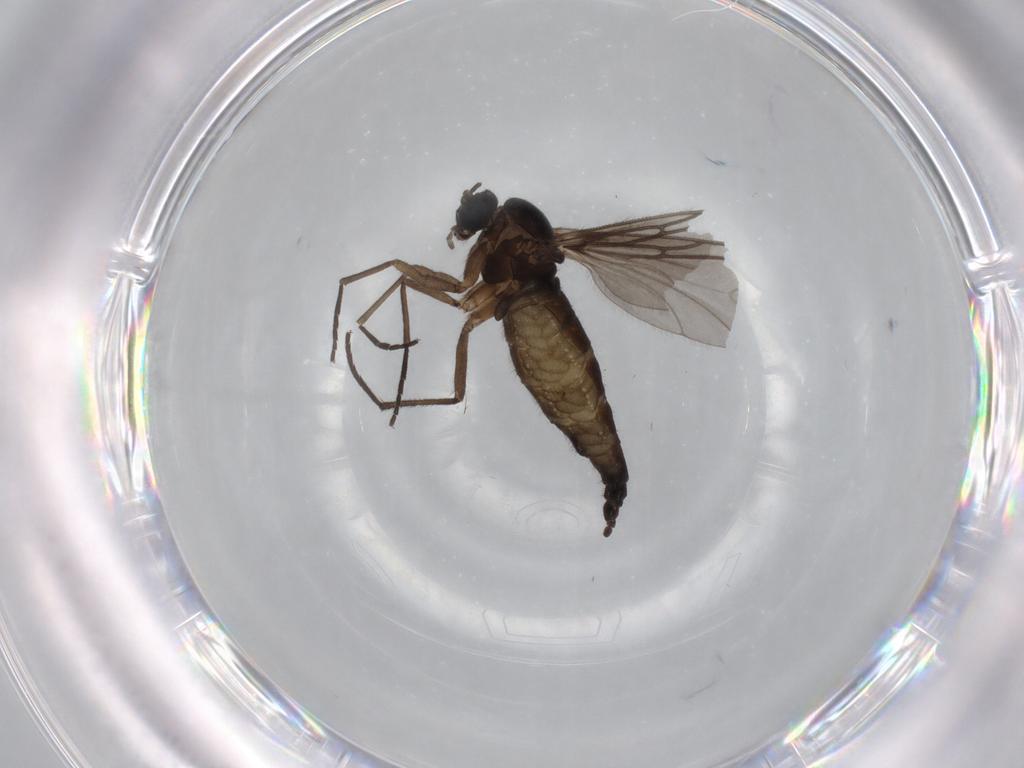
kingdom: Animalia
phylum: Arthropoda
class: Insecta
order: Diptera
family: Sciaridae
